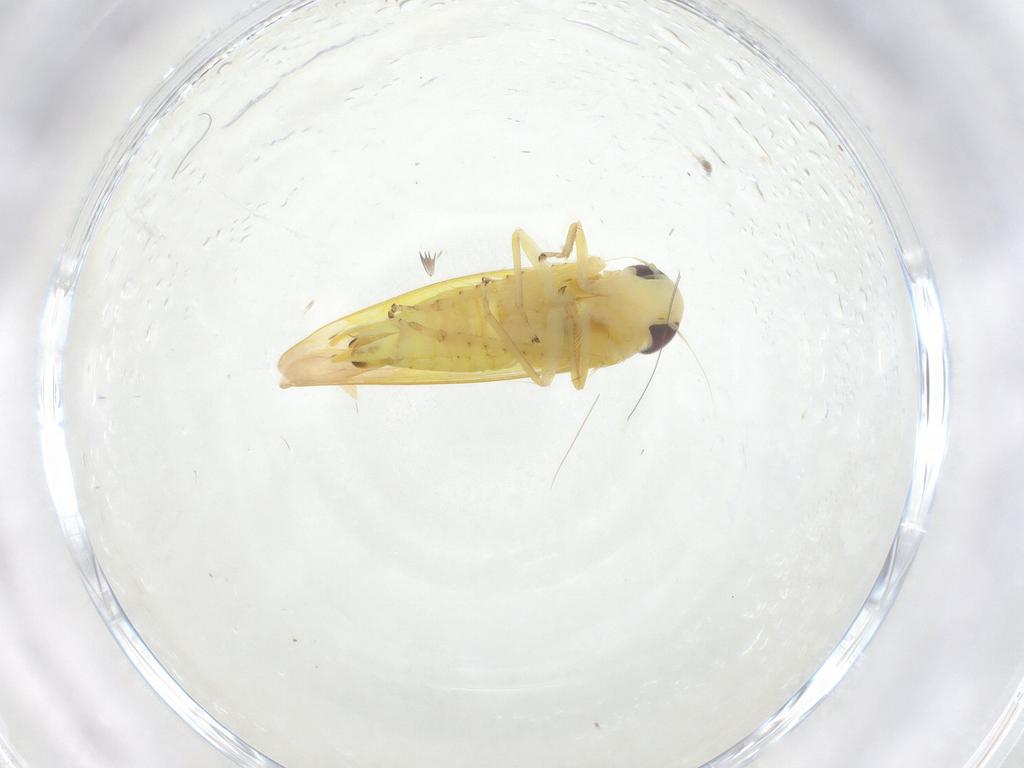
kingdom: Animalia
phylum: Arthropoda
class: Insecta
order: Hemiptera
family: Cicadellidae
